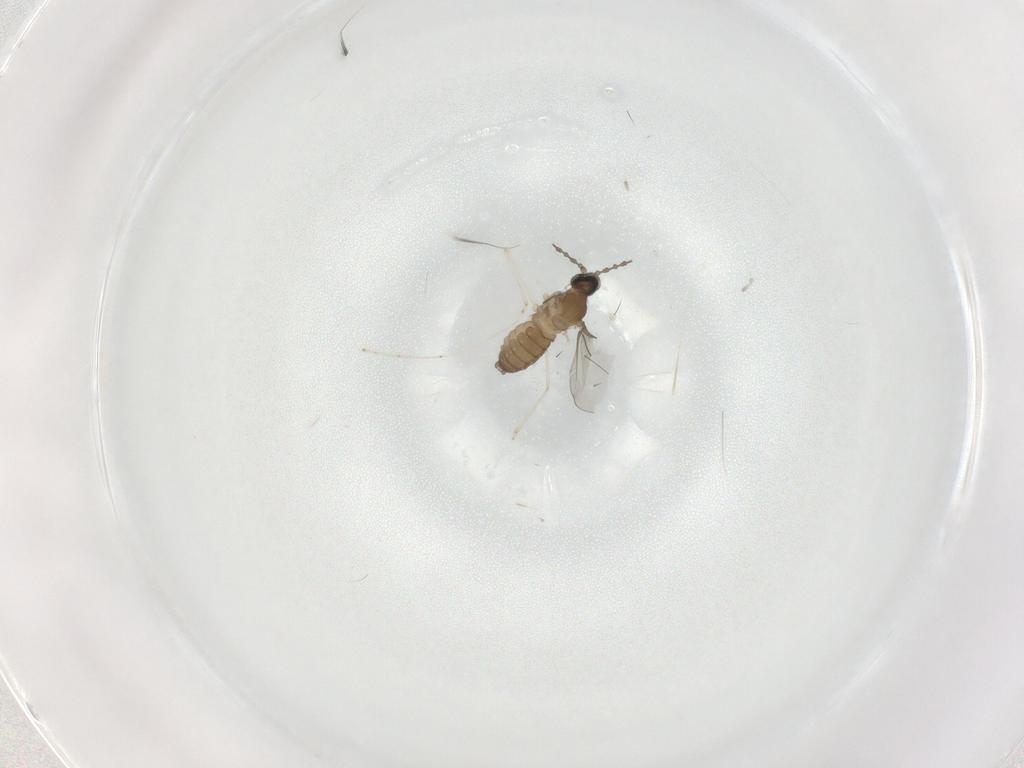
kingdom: Animalia
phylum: Arthropoda
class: Insecta
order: Diptera
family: Cecidomyiidae
